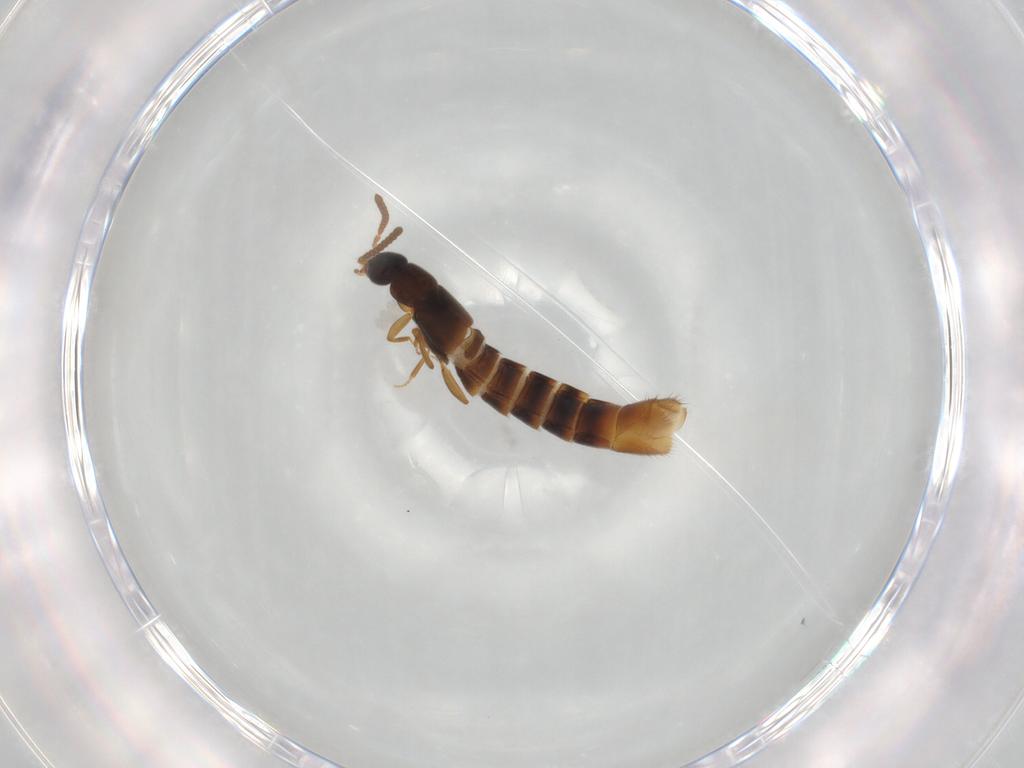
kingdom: Animalia
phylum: Arthropoda
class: Insecta
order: Coleoptera
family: Staphylinidae
